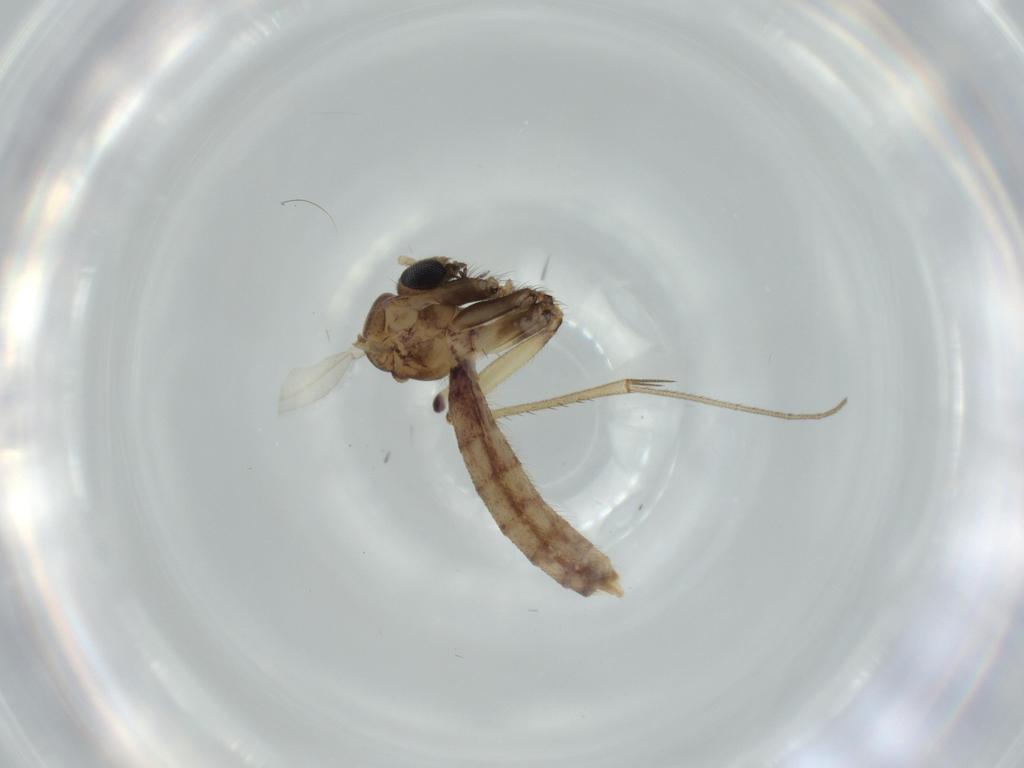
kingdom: Animalia
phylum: Arthropoda
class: Insecta
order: Diptera
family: Mycetophilidae
